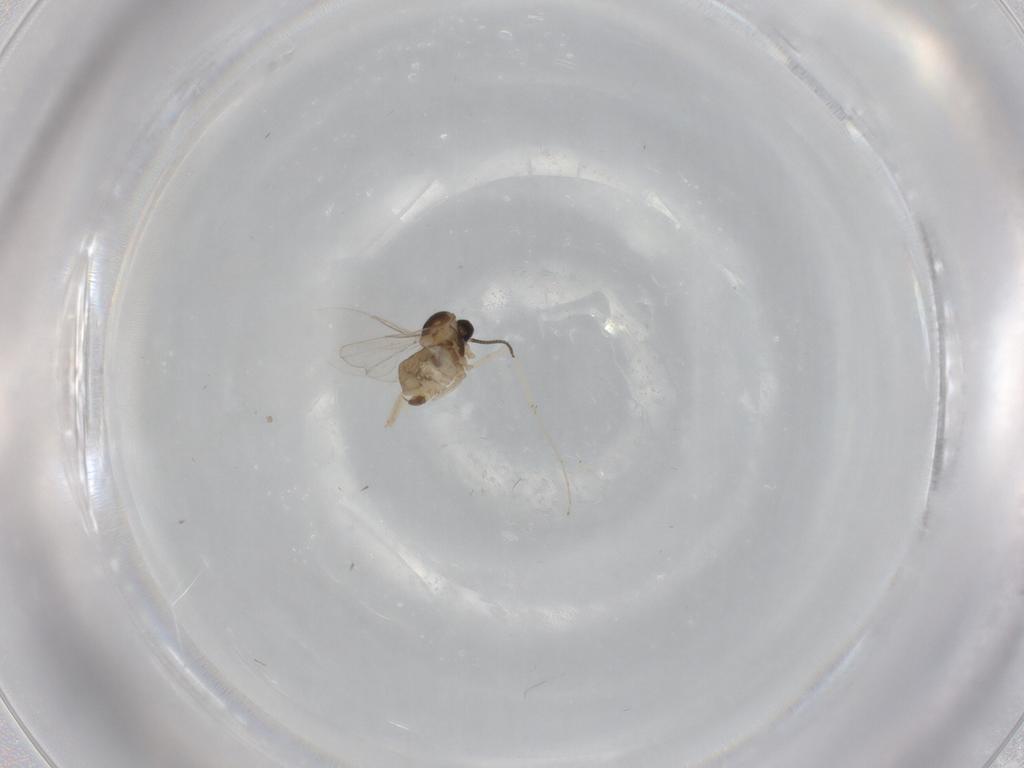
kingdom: Animalia
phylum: Arthropoda
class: Insecta
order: Diptera
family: Cecidomyiidae
